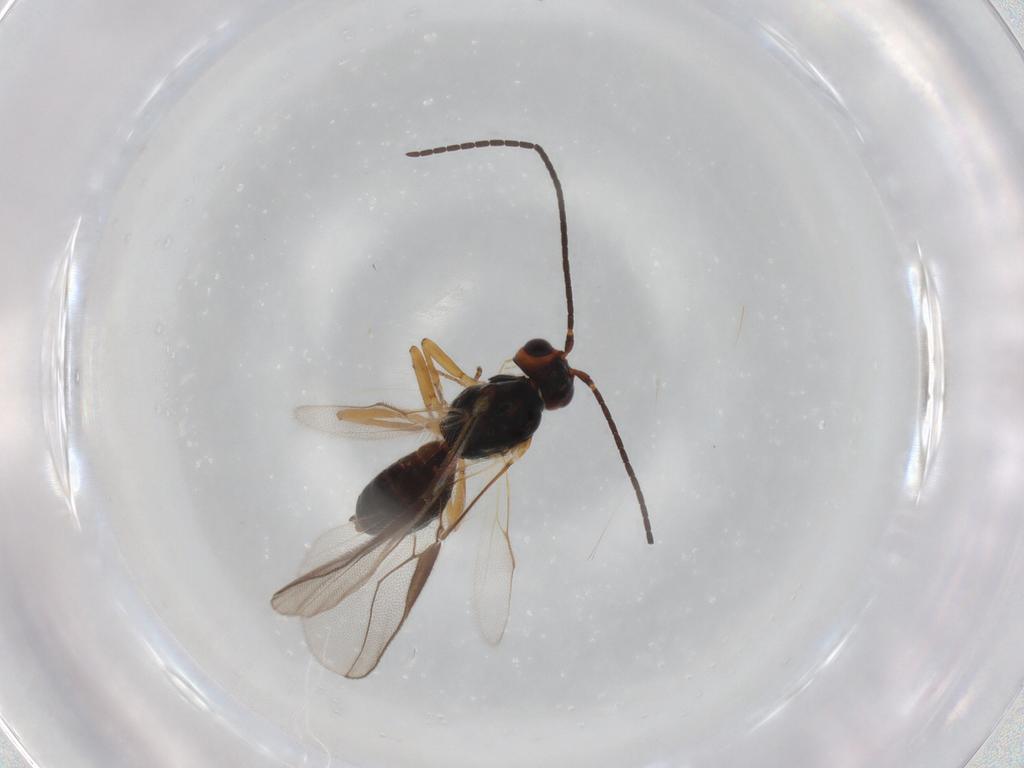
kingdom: Animalia
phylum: Arthropoda
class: Insecta
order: Hymenoptera
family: Braconidae
